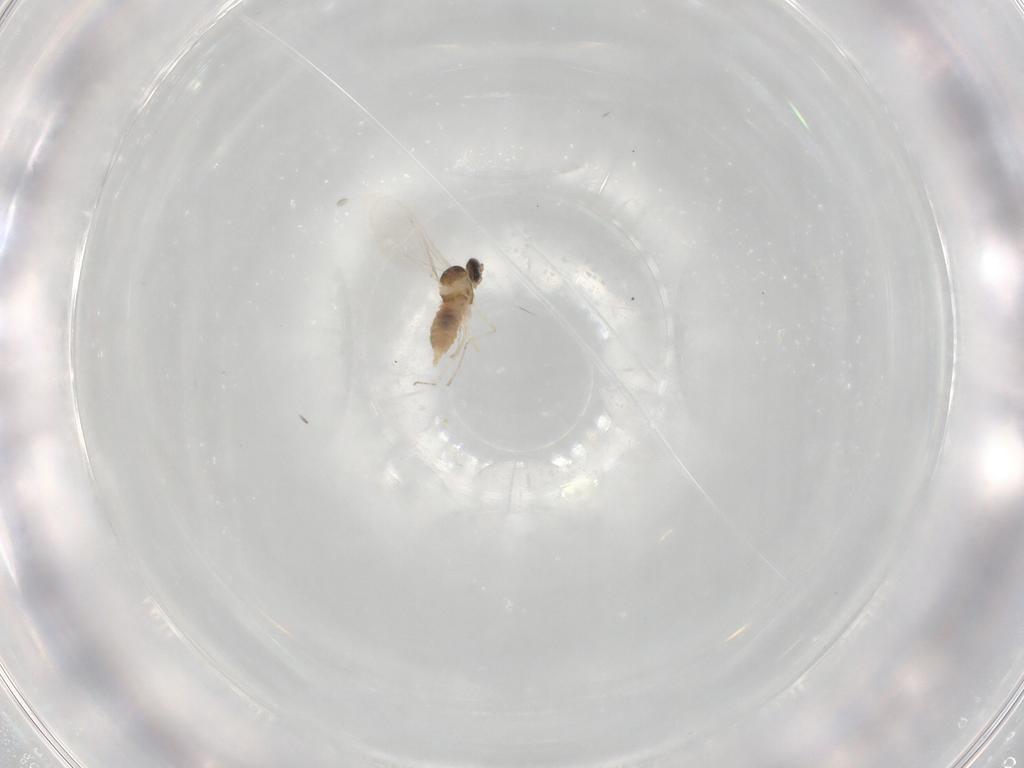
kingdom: Animalia
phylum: Arthropoda
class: Insecta
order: Diptera
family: Cecidomyiidae
